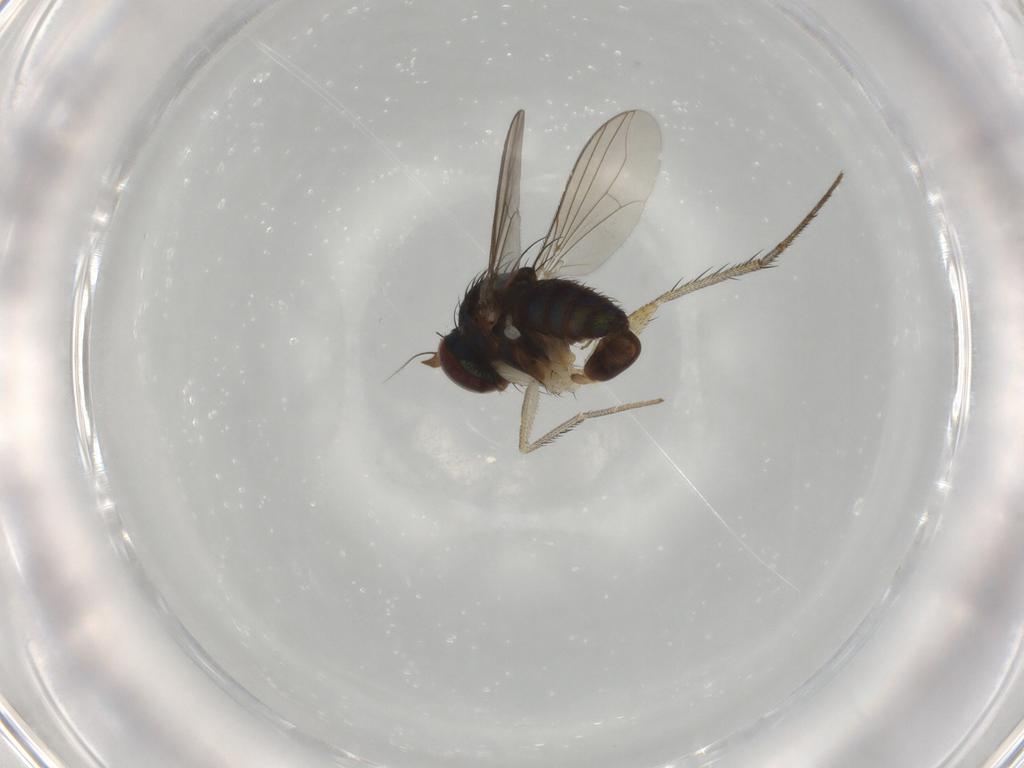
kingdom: Animalia
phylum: Arthropoda
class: Insecta
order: Diptera
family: Dolichopodidae
